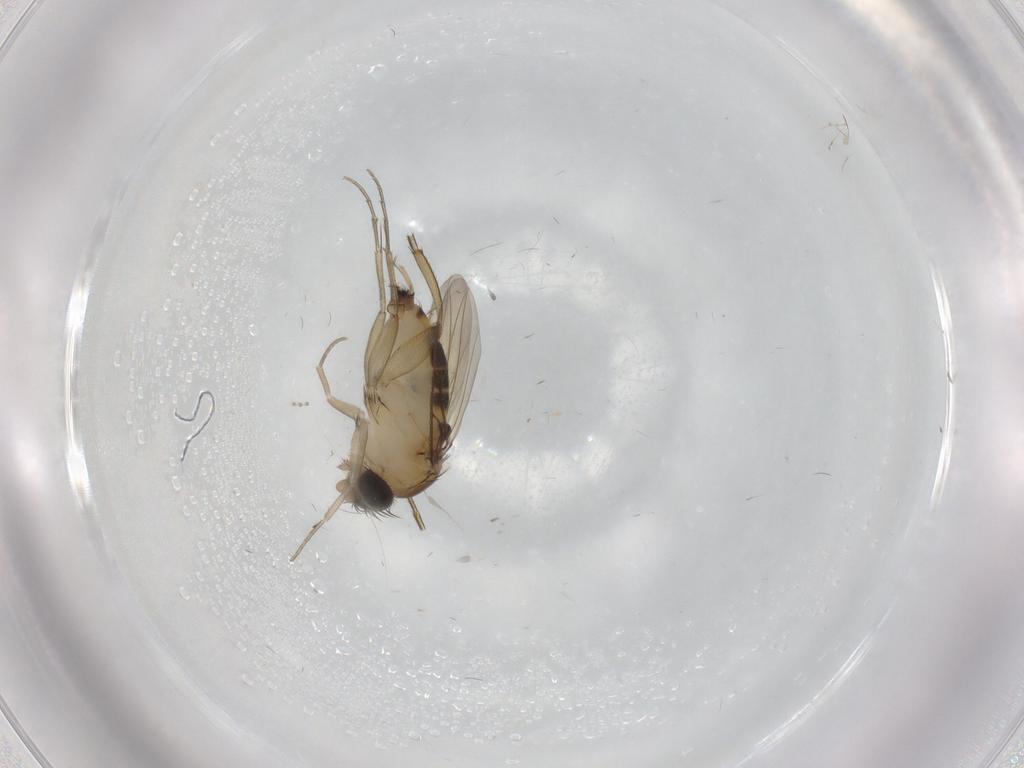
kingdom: Animalia
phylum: Arthropoda
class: Insecta
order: Diptera
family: Phoridae
